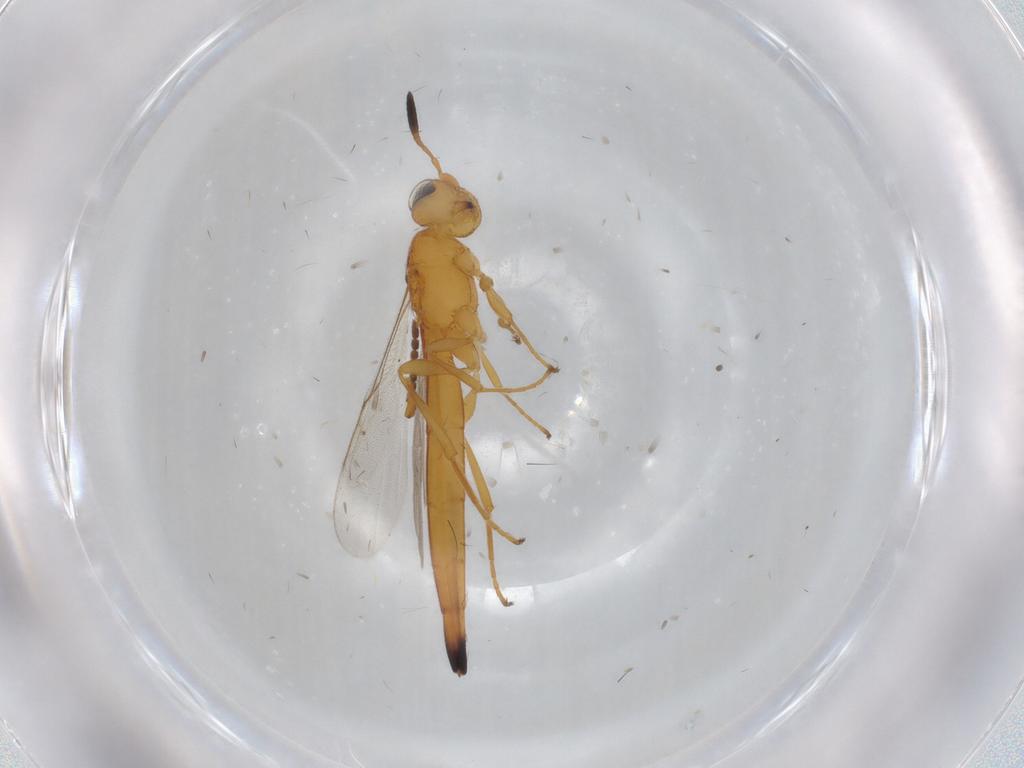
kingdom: Animalia
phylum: Arthropoda
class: Insecta
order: Hymenoptera
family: Scelionidae
